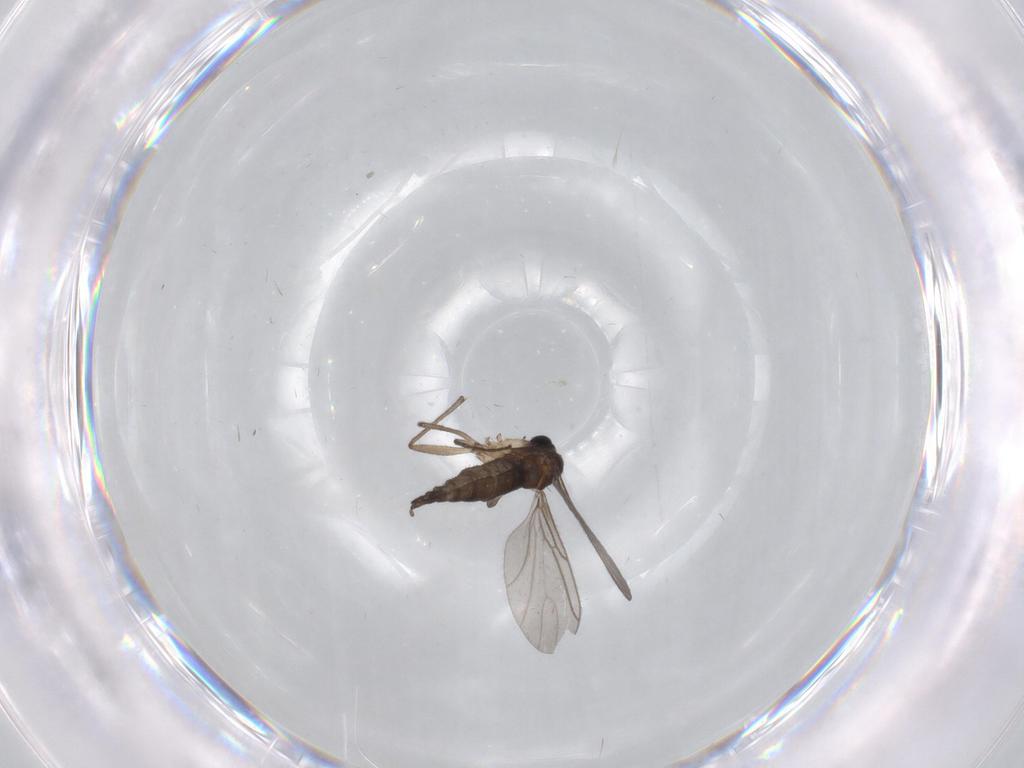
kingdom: Animalia
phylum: Arthropoda
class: Insecta
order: Diptera
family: Sciaridae
